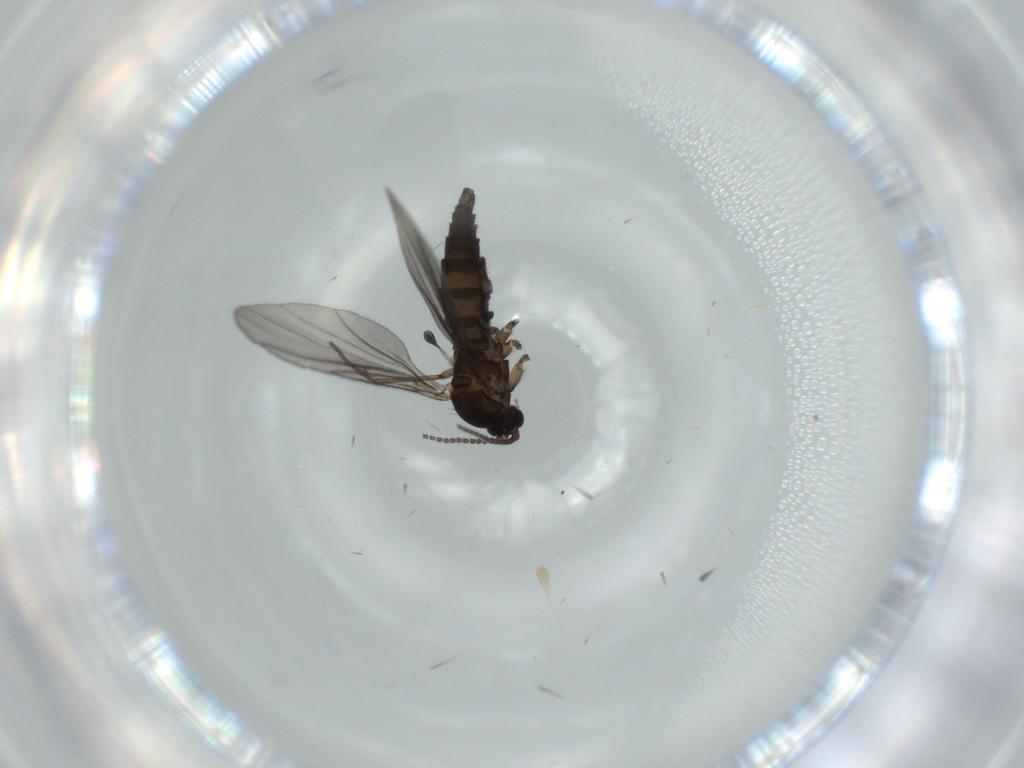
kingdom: Animalia
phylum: Arthropoda
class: Insecta
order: Diptera
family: Sciaridae
